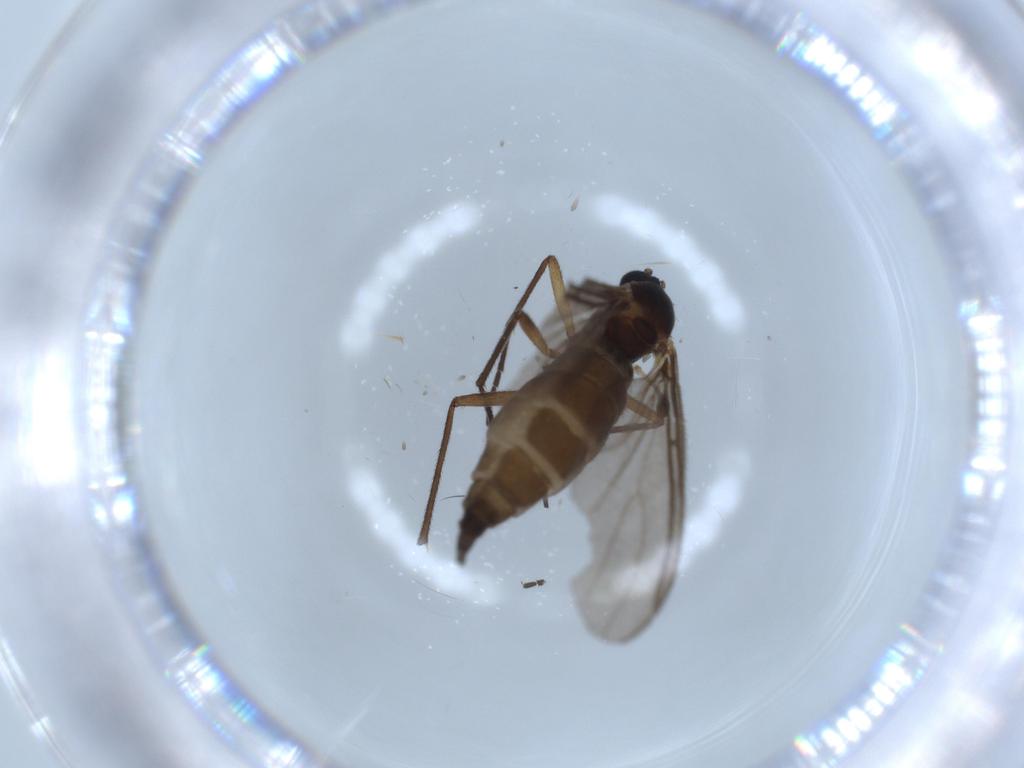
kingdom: Animalia
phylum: Arthropoda
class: Insecta
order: Diptera
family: Sciaridae
